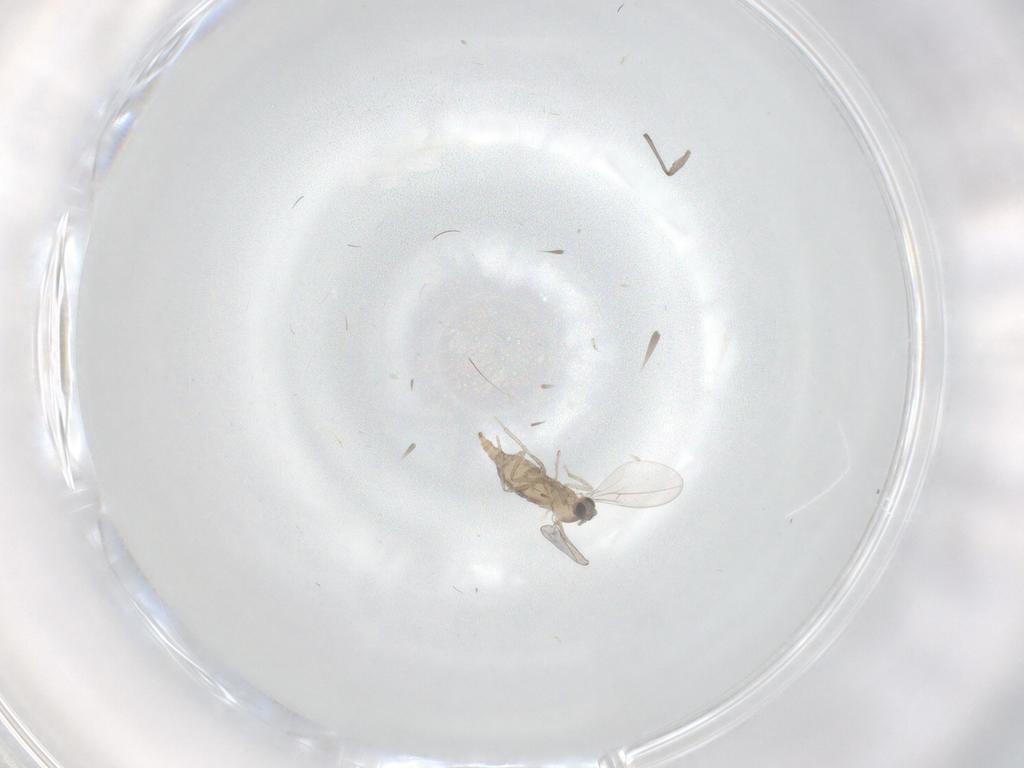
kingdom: Animalia
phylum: Arthropoda
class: Insecta
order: Diptera
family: Cecidomyiidae
